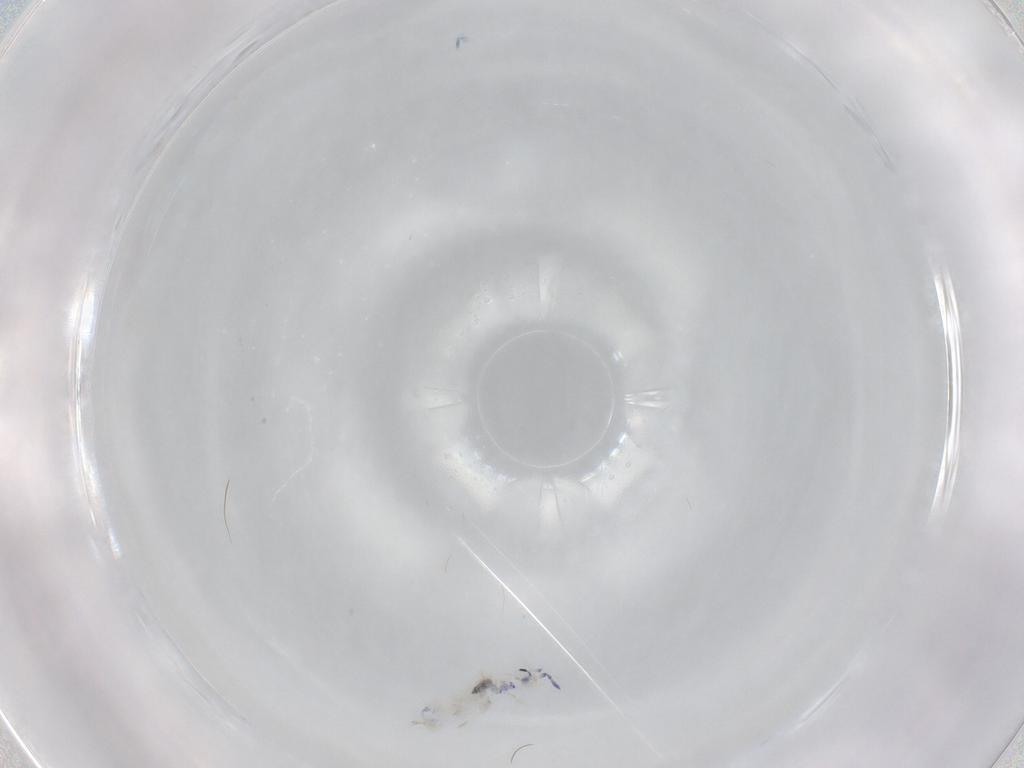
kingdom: Animalia
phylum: Arthropoda
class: Collembola
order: Entomobryomorpha
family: Entomobryidae
